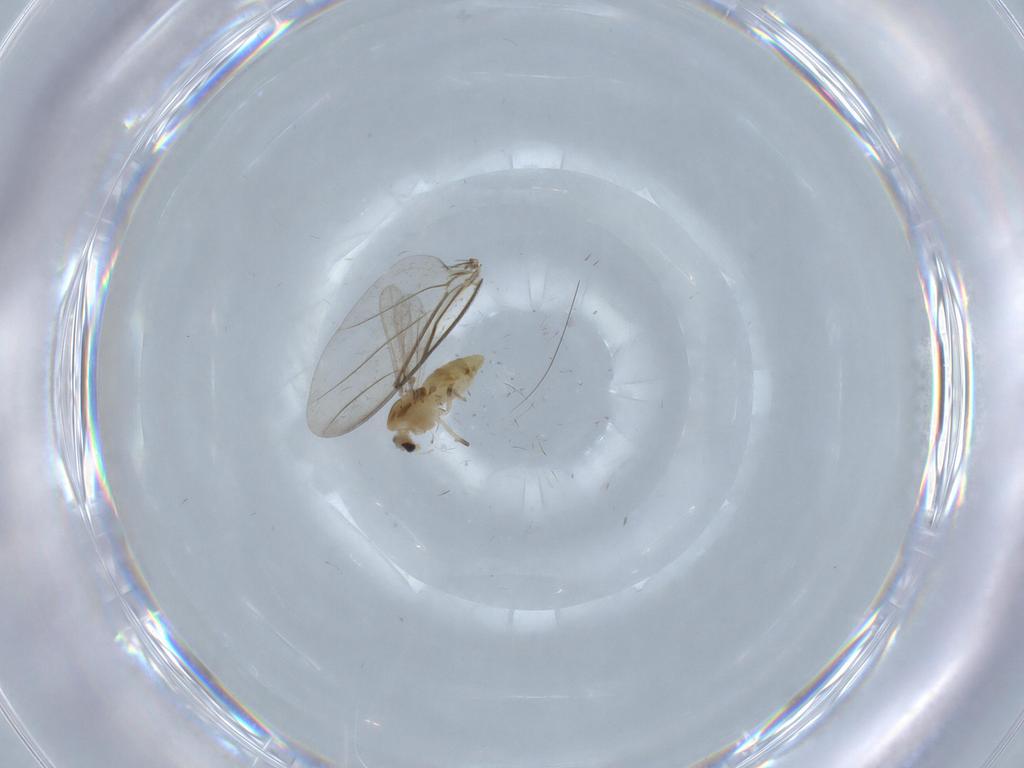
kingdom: Animalia
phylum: Arthropoda
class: Insecta
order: Diptera
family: Chironomidae
